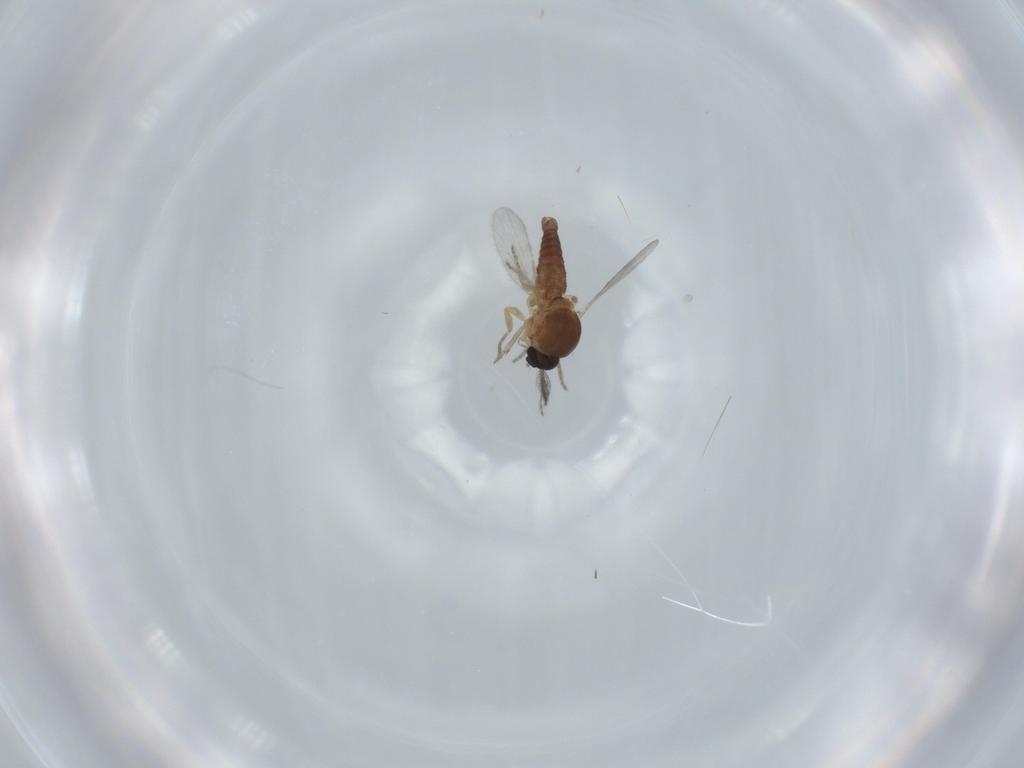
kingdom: Animalia
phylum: Arthropoda
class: Insecta
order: Diptera
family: Ceratopogonidae
